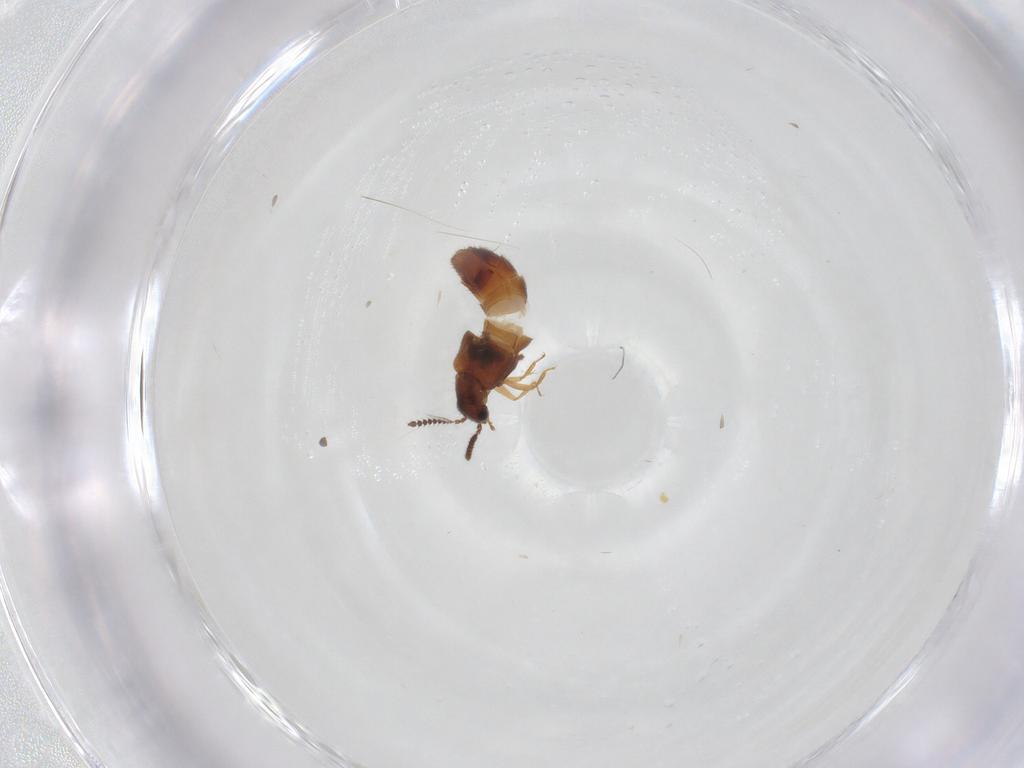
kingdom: Animalia
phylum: Arthropoda
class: Insecta
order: Coleoptera
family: Staphylinidae
